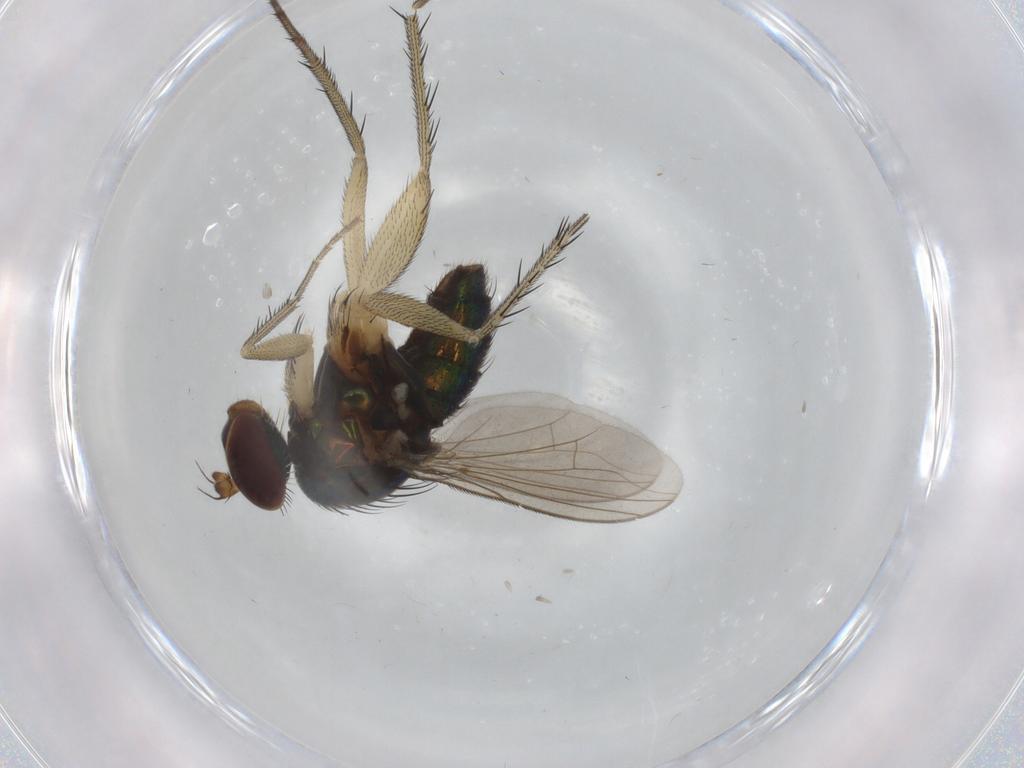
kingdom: Animalia
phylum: Arthropoda
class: Insecta
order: Diptera
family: Dolichopodidae
